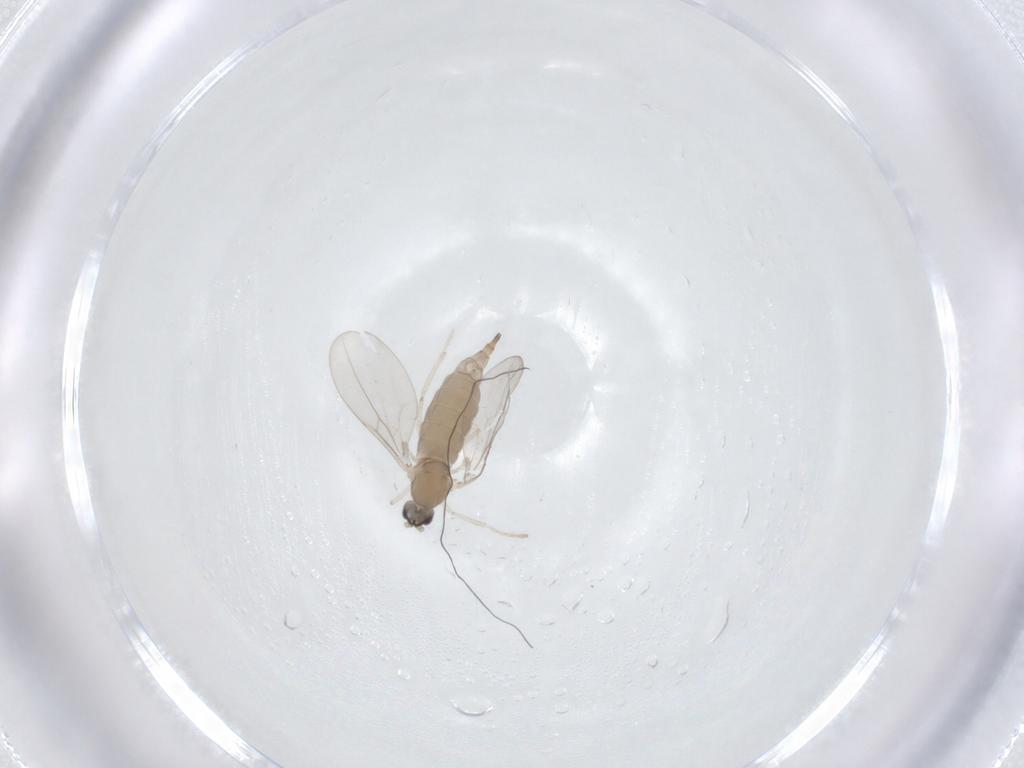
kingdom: Animalia
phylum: Arthropoda
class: Insecta
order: Diptera
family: Cecidomyiidae
